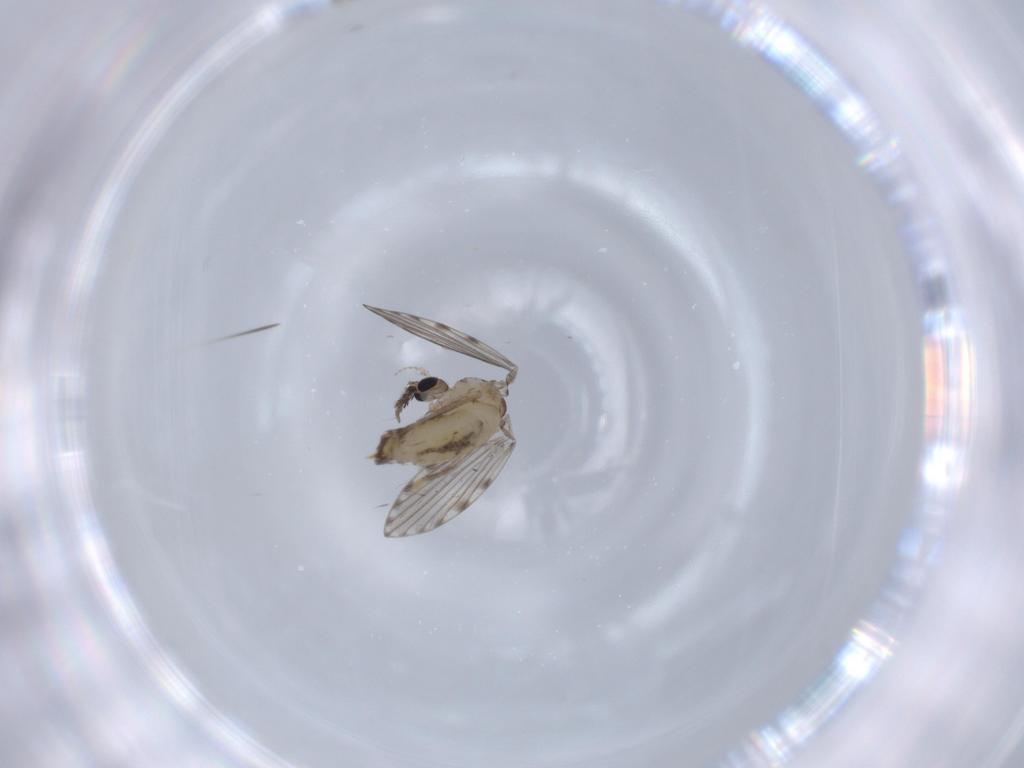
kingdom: Animalia
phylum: Arthropoda
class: Insecta
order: Diptera
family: Psychodidae
